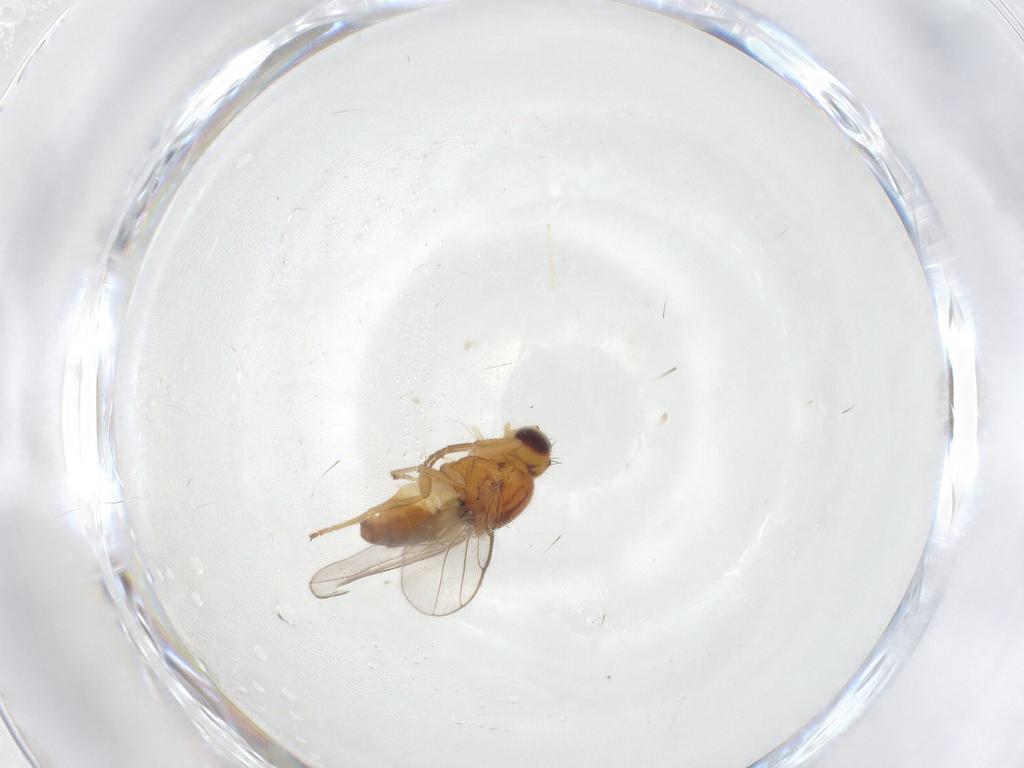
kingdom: Animalia
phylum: Arthropoda
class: Insecta
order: Diptera
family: Chloropidae
